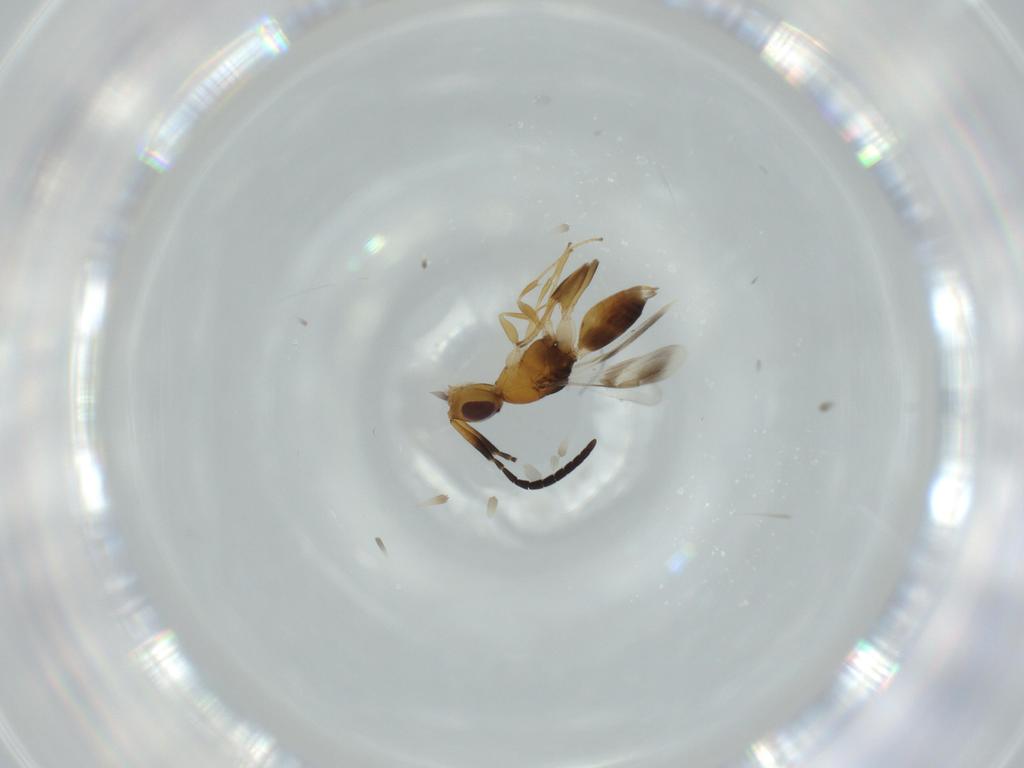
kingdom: Animalia
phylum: Arthropoda
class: Insecta
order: Hymenoptera
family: Megaspilidae
